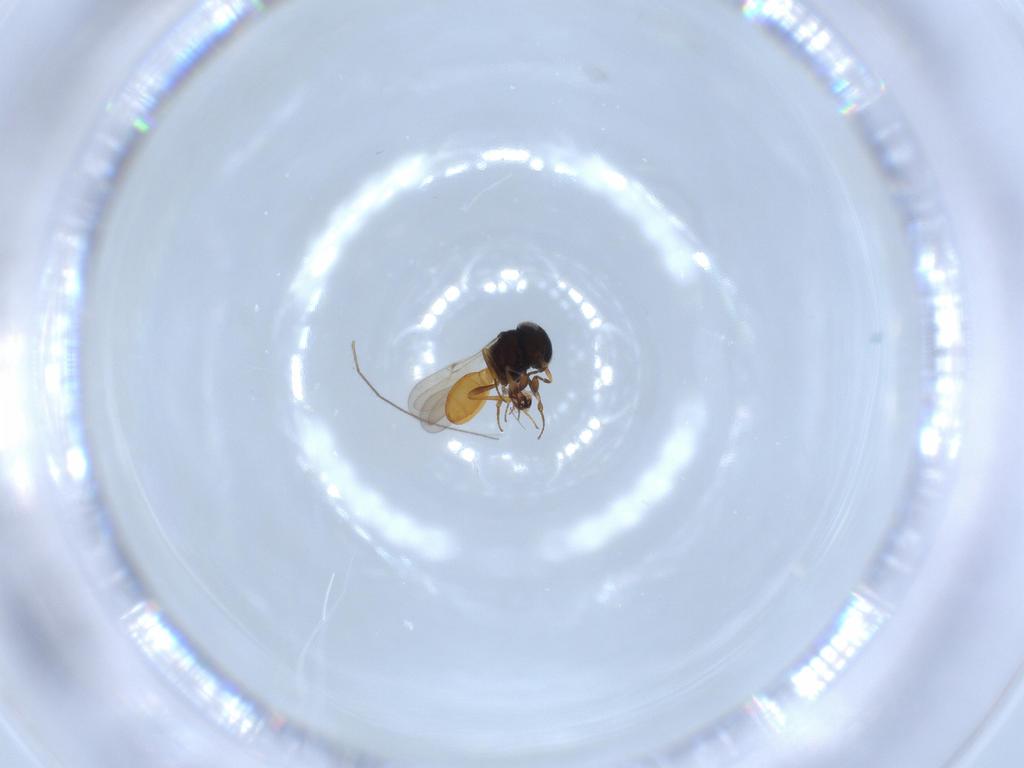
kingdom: Animalia
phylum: Arthropoda
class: Insecta
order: Hymenoptera
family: Scelionidae
